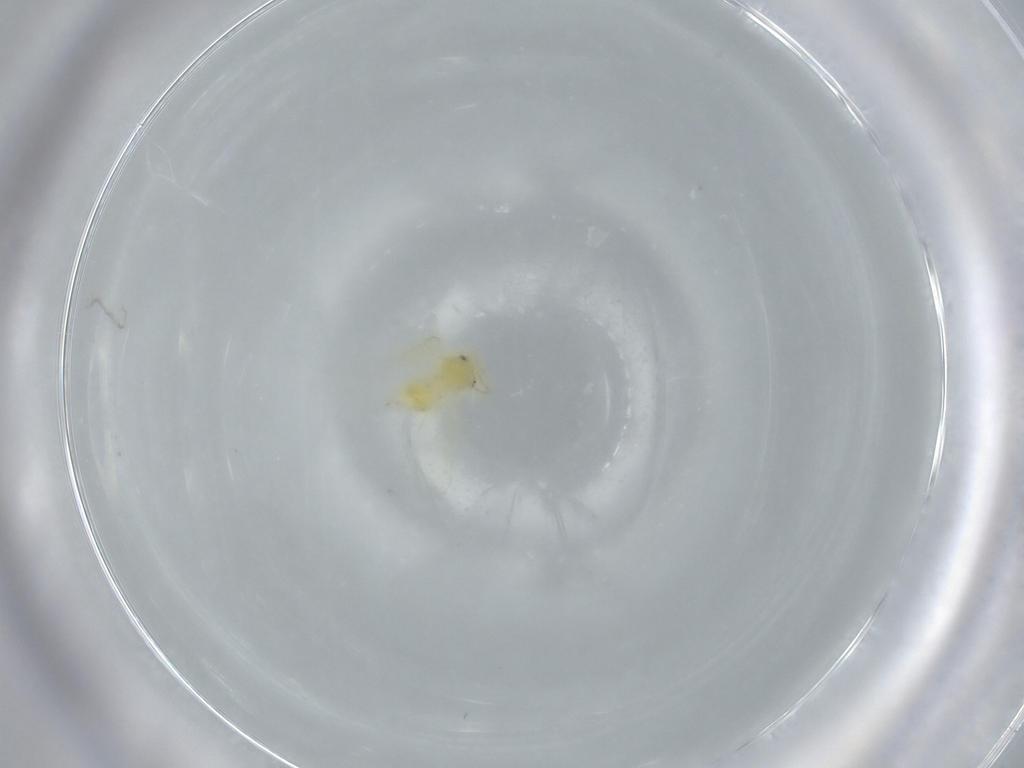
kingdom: Animalia
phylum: Arthropoda
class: Insecta
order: Hemiptera
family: Aleyrodidae
